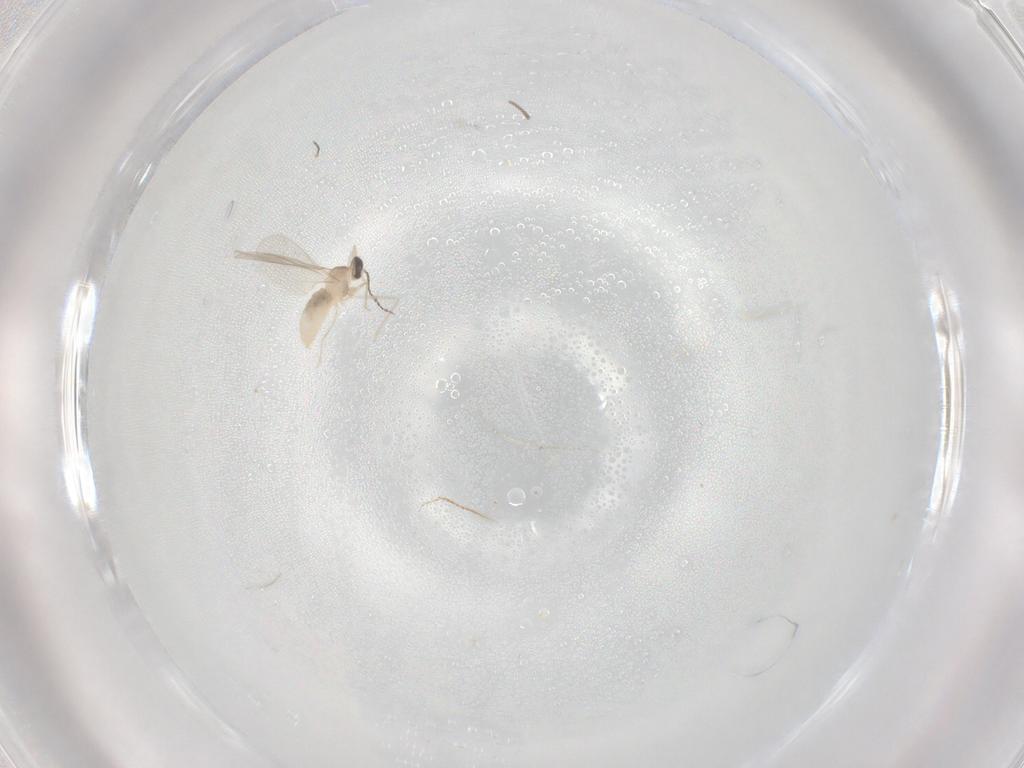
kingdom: Animalia
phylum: Arthropoda
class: Insecta
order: Diptera
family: Cecidomyiidae
